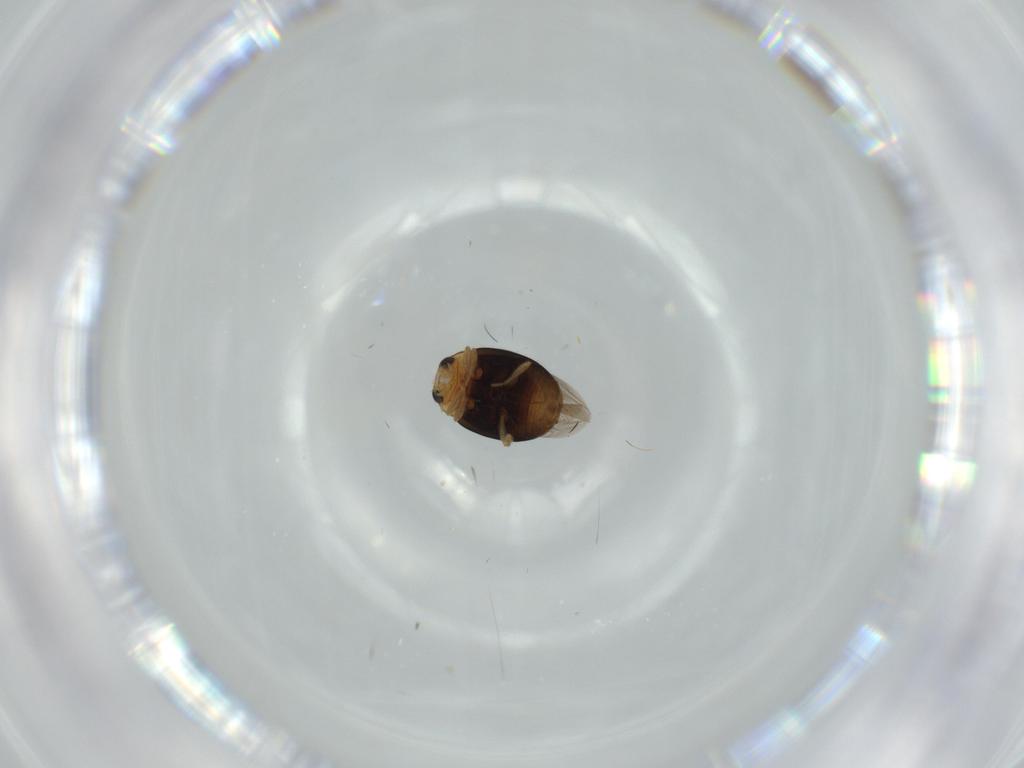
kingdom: Animalia
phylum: Arthropoda
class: Insecta
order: Coleoptera
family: Coccinellidae
